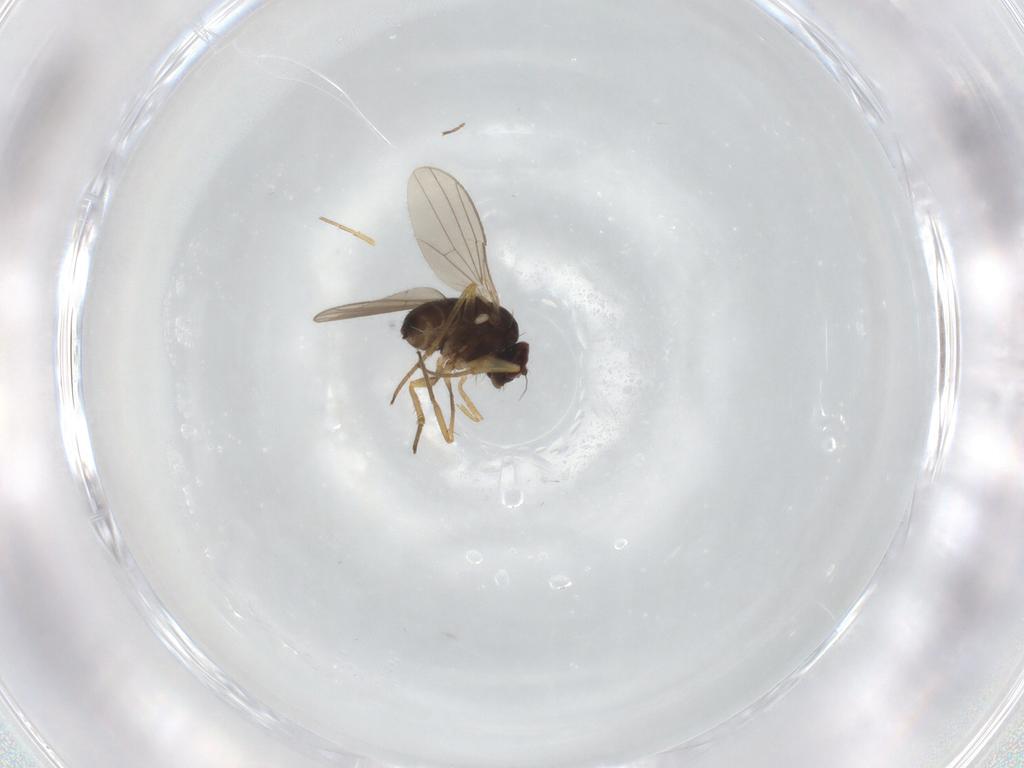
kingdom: Animalia
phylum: Arthropoda
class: Insecta
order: Diptera
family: Dolichopodidae
